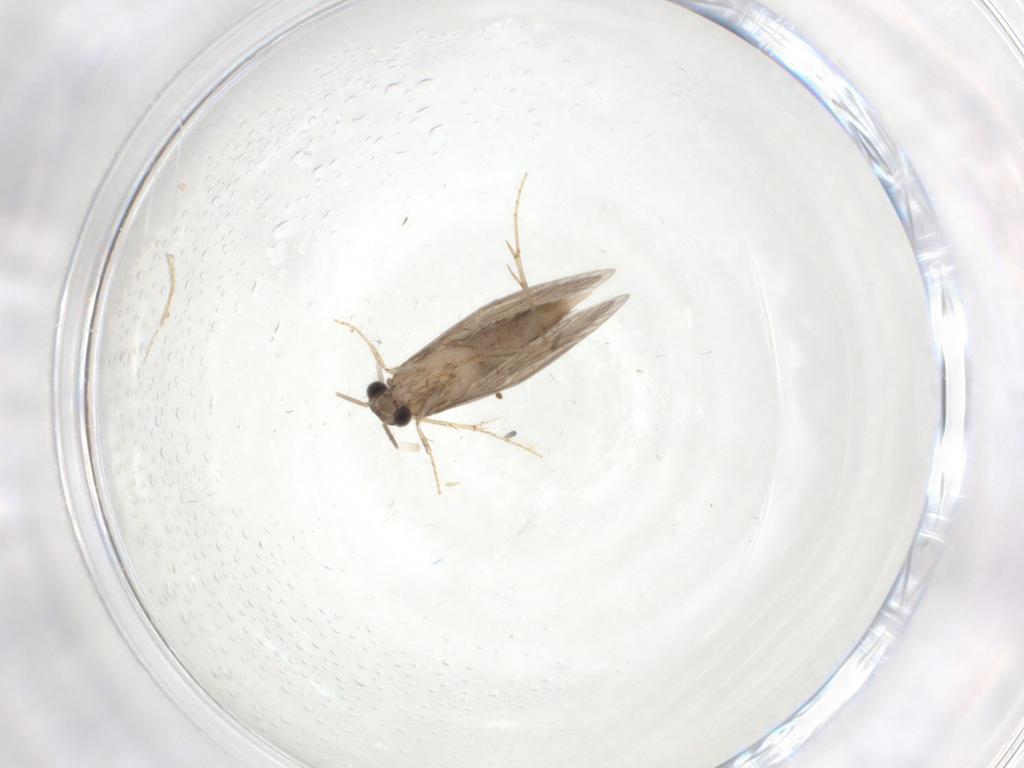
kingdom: Animalia
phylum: Arthropoda
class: Insecta
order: Trichoptera
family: Hydroptilidae
